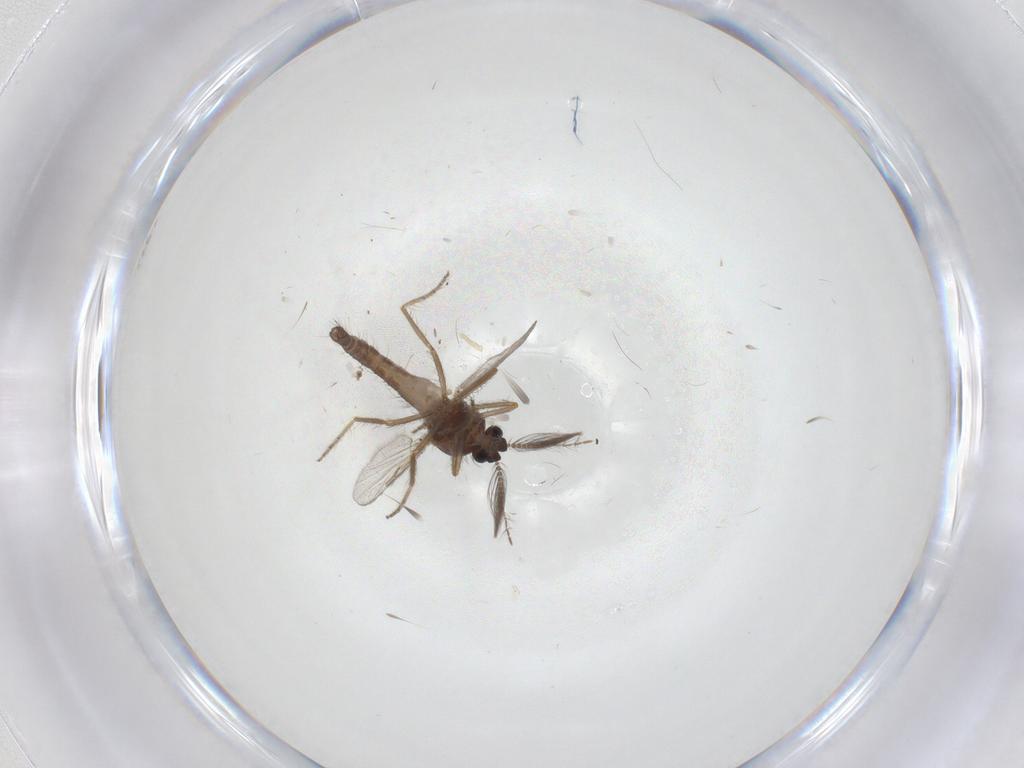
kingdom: Animalia
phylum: Arthropoda
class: Insecta
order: Diptera
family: Ceratopogonidae
